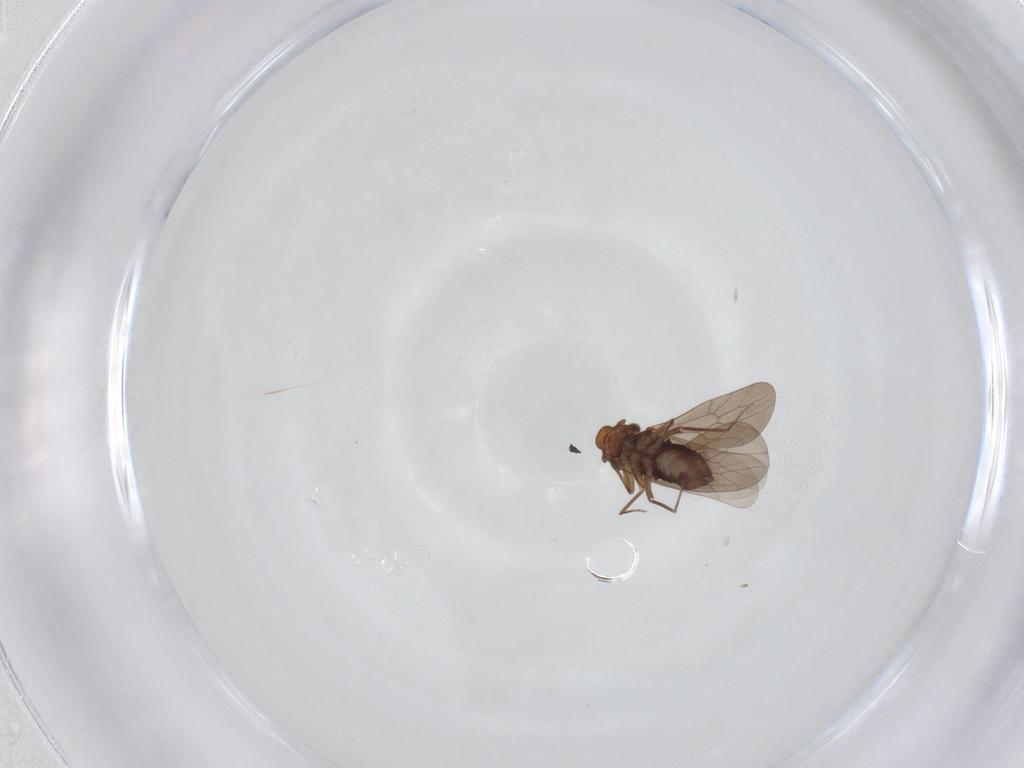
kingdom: Animalia
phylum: Arthropoda
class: Insecta
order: Psocodea
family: Lepidopsocidae
